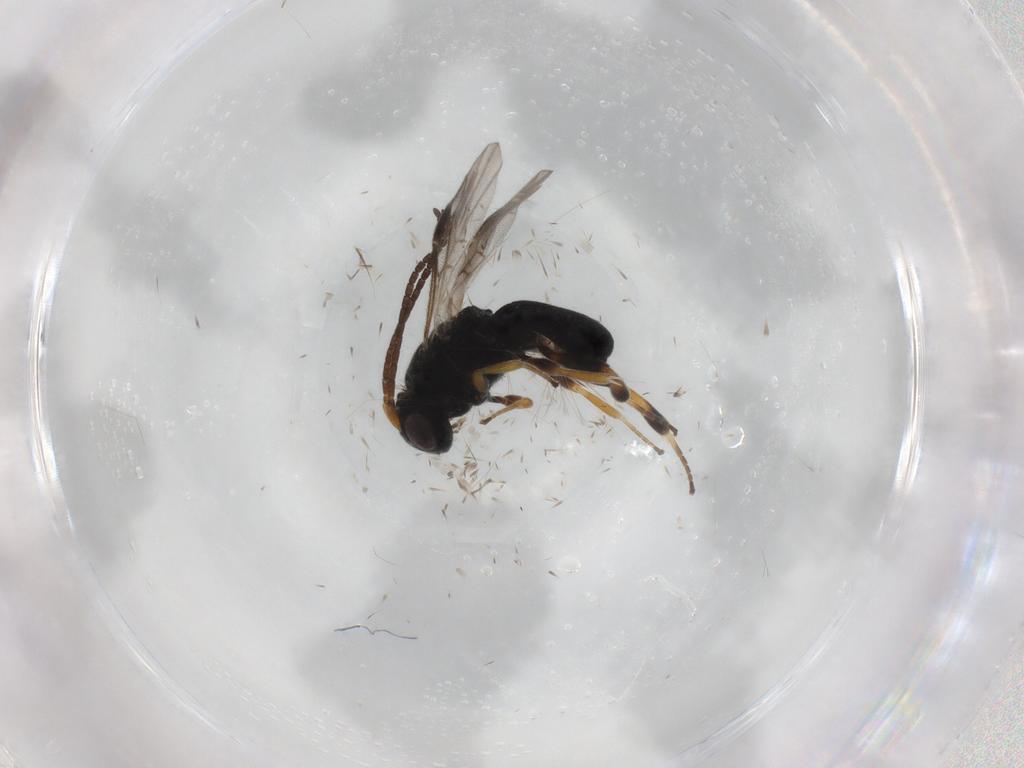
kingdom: Animalia
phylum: Arthropoda
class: Insecta
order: Hymenoptera
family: Braconidae
